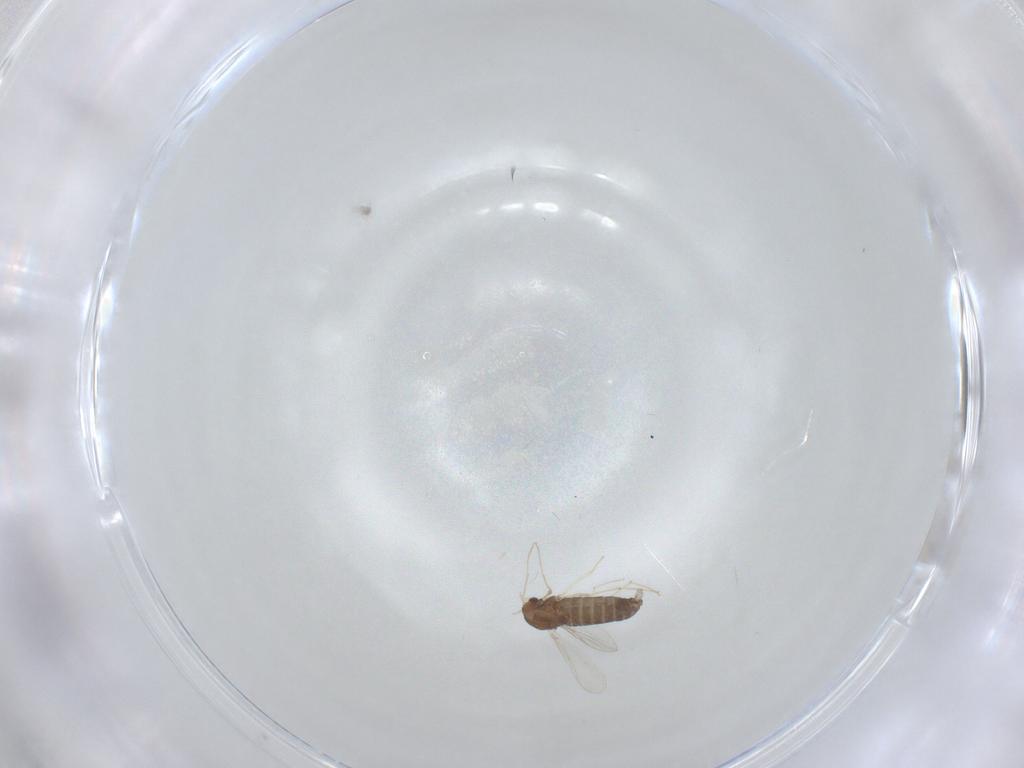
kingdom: Animalia
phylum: Arthropoda
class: Insecta
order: Diptera
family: Chironomidae
